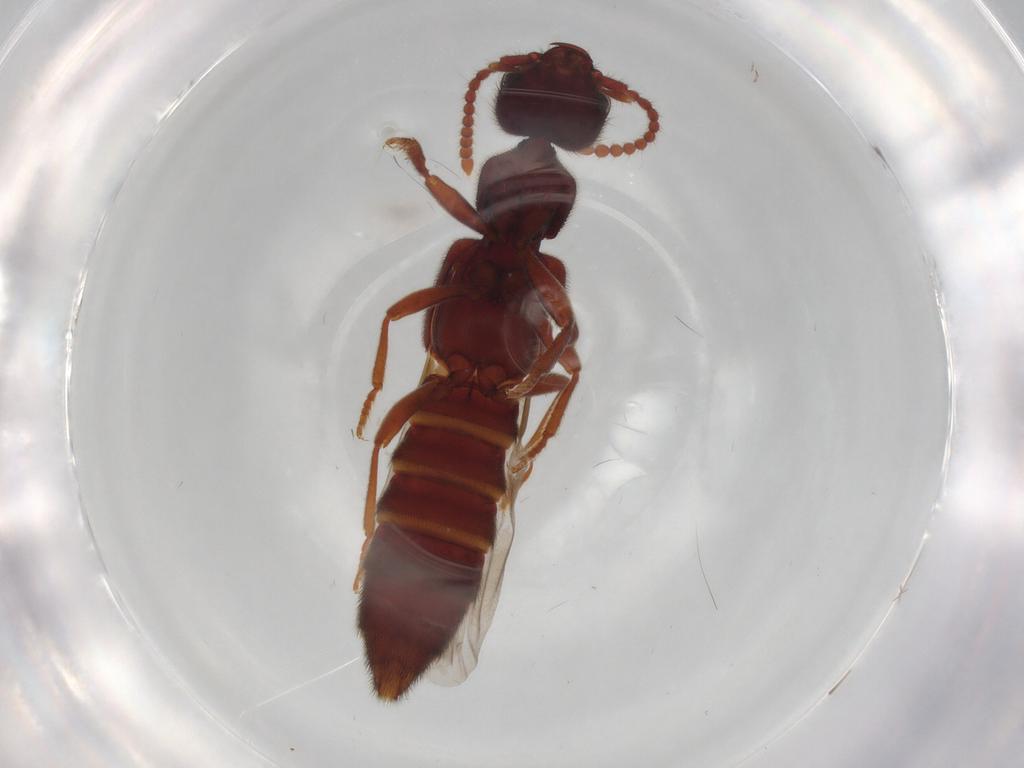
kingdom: Animalia
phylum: Arthropoda
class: Insecta
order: Coleoptera
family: Staphylinidae
